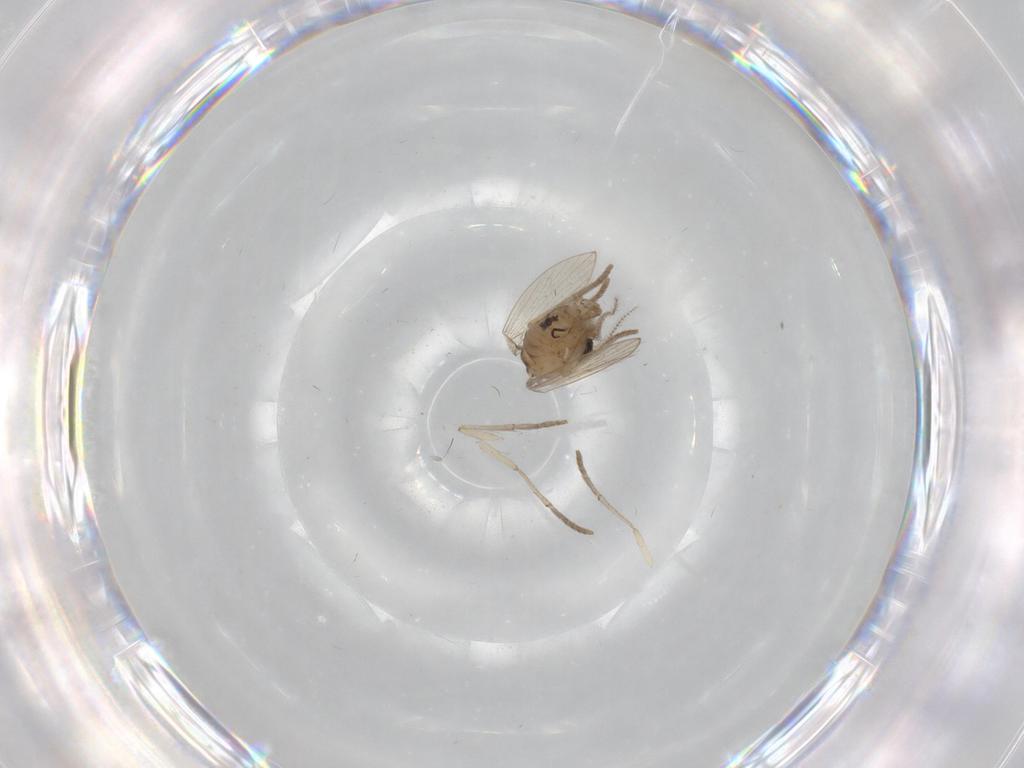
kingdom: Animalia
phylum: Arthropoda
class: Insecta
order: Diptera
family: Psychodidae
